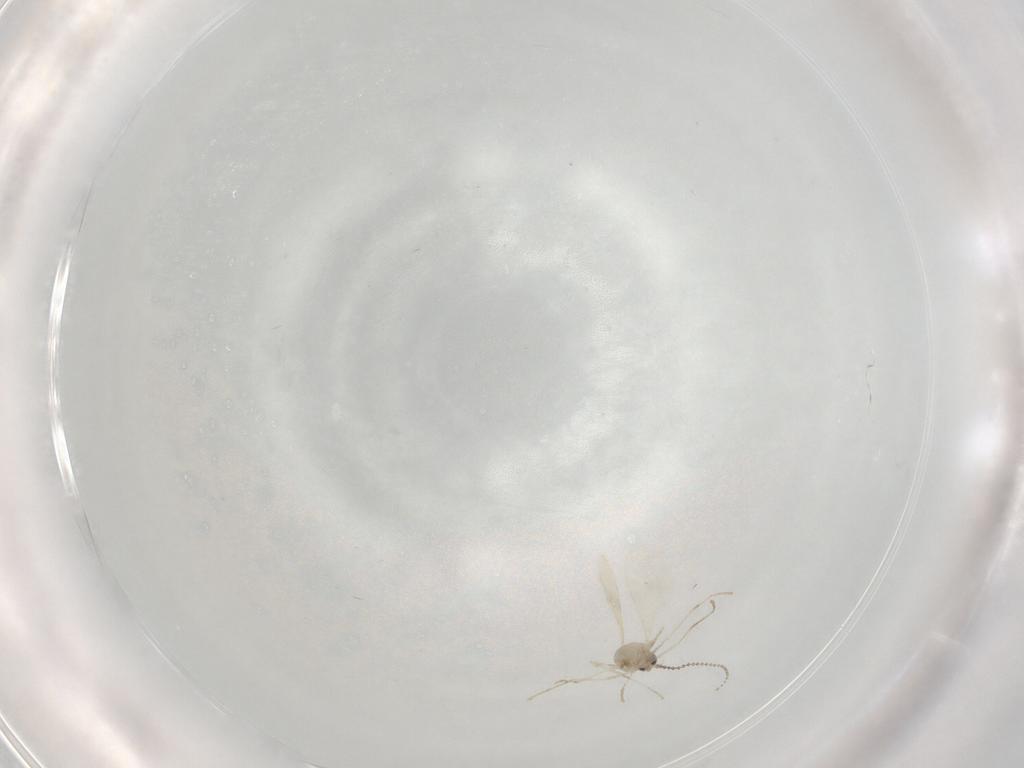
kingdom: Animalia
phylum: Arthropoda
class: Insecta
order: Diptera
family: Cecidomyiidae
